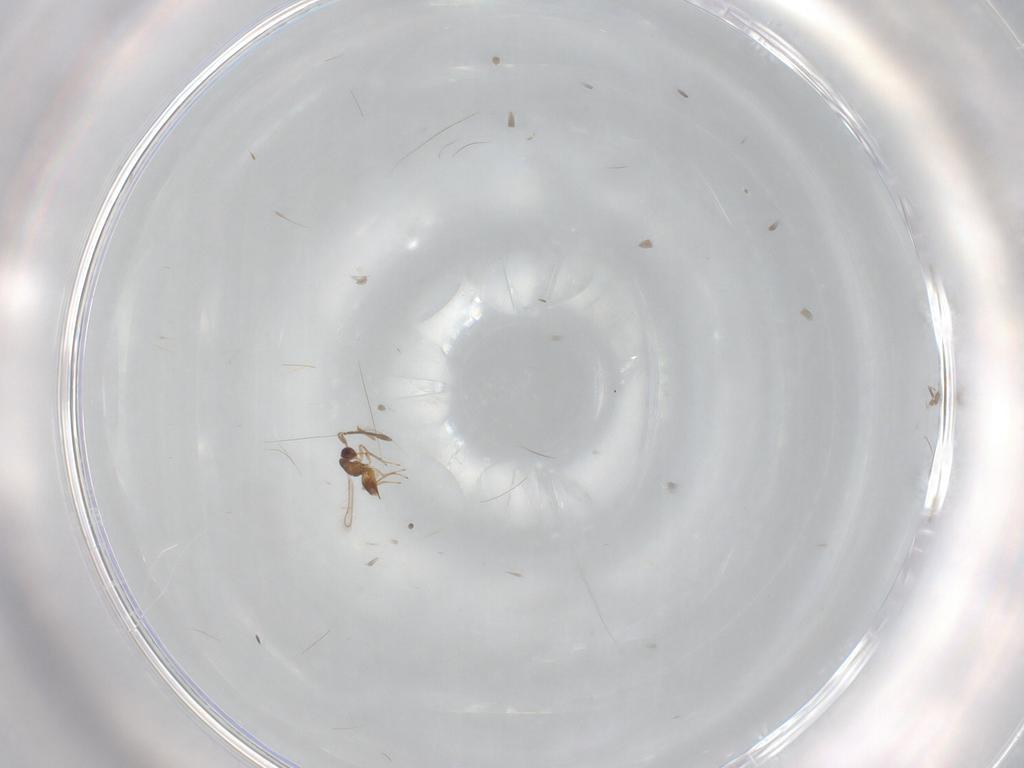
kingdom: Animalia
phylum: Arthropoda
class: Insecta
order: Hymenoptera
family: Mymaridae
